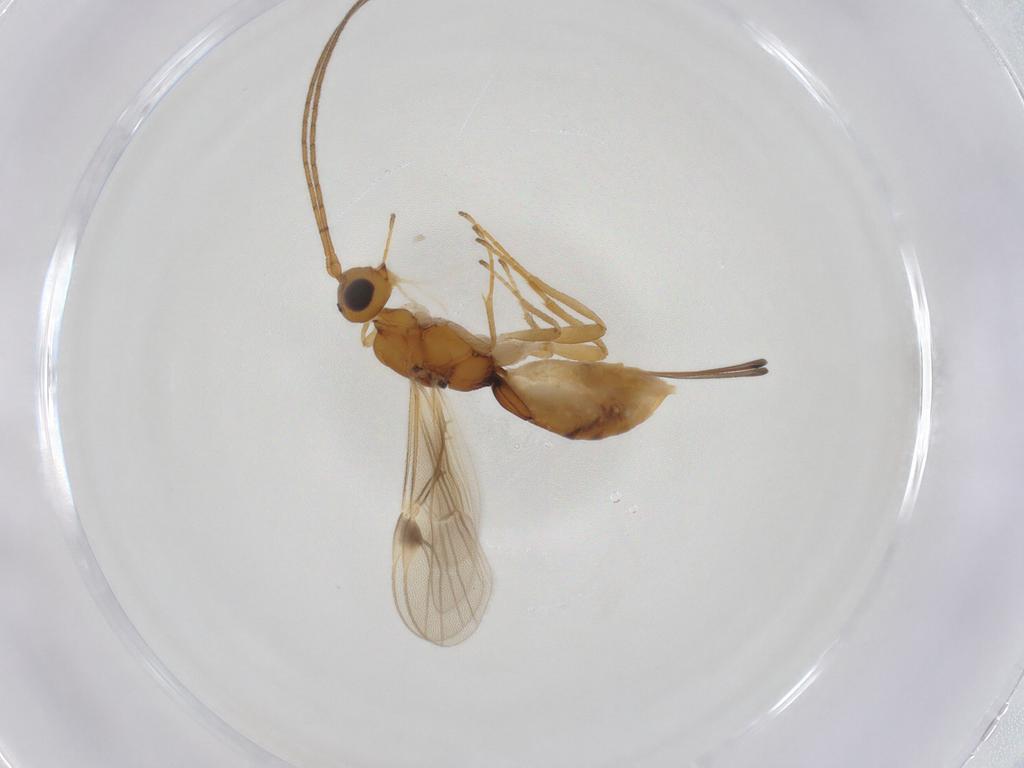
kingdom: Animalia
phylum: Arthropoda
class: Insecta
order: Hymenoptera
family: Braconidae
